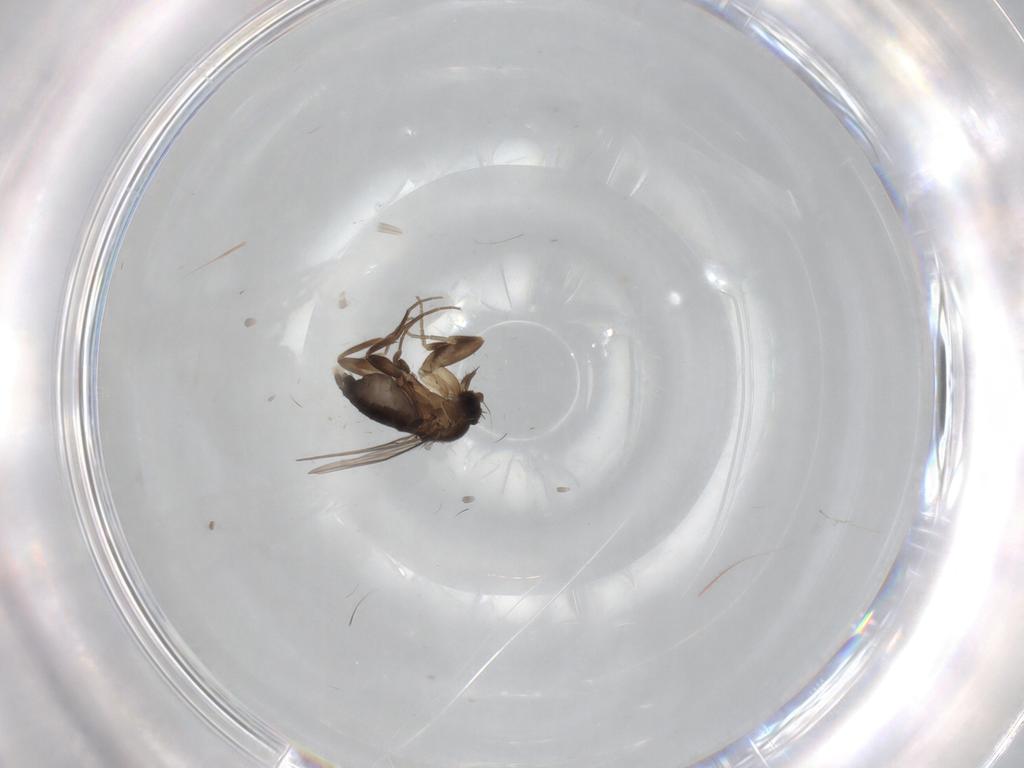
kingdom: Animalia
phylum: Arthropoda
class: Insecta
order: Diptera
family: Phoridae
